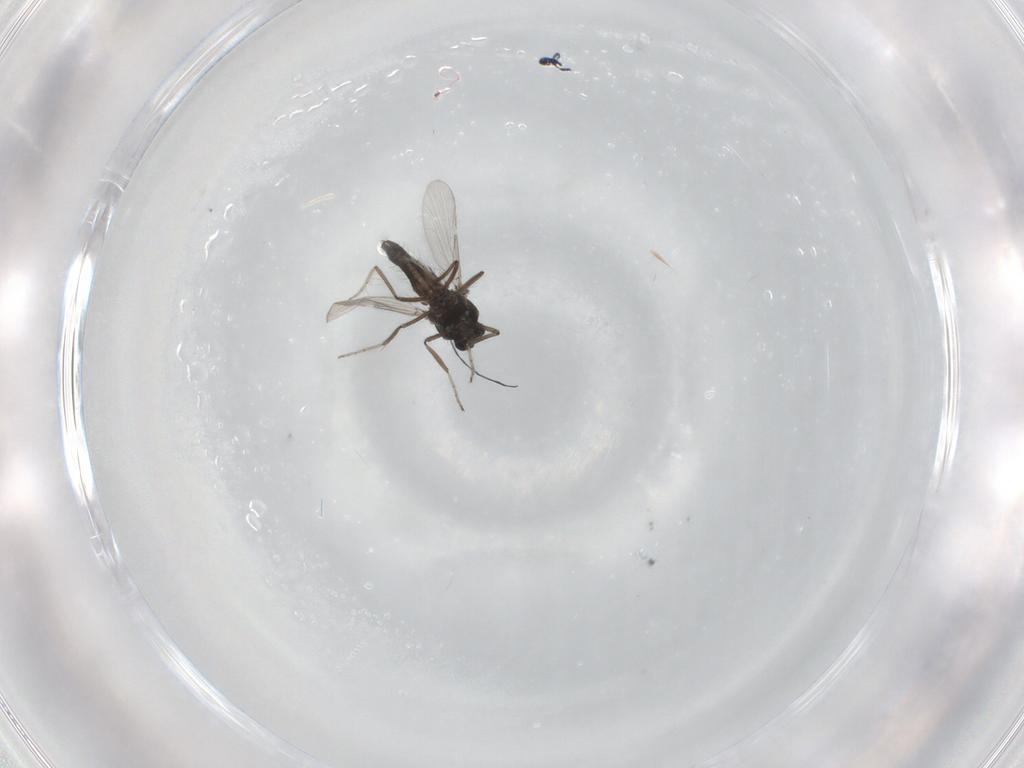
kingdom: Animalia
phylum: Arthropoda
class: Insecta
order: Diptera
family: Ceratopogonidae
